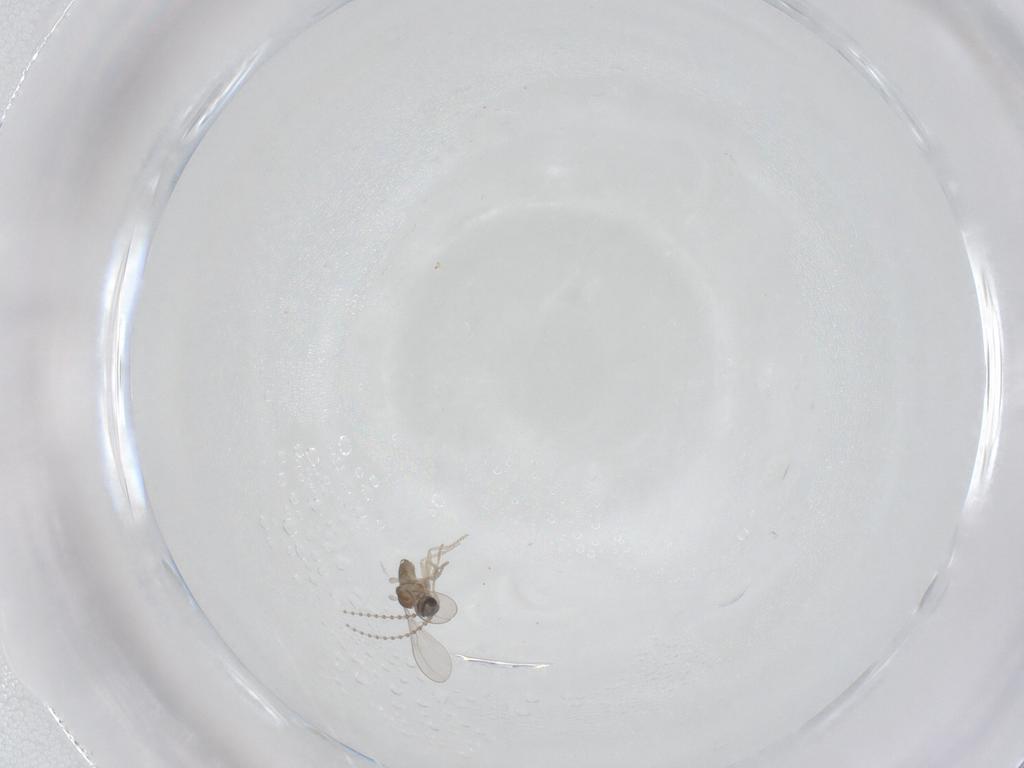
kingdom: Animalia
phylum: Arthropoda
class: Insecta
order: Diptera
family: Cecidomyiidae
